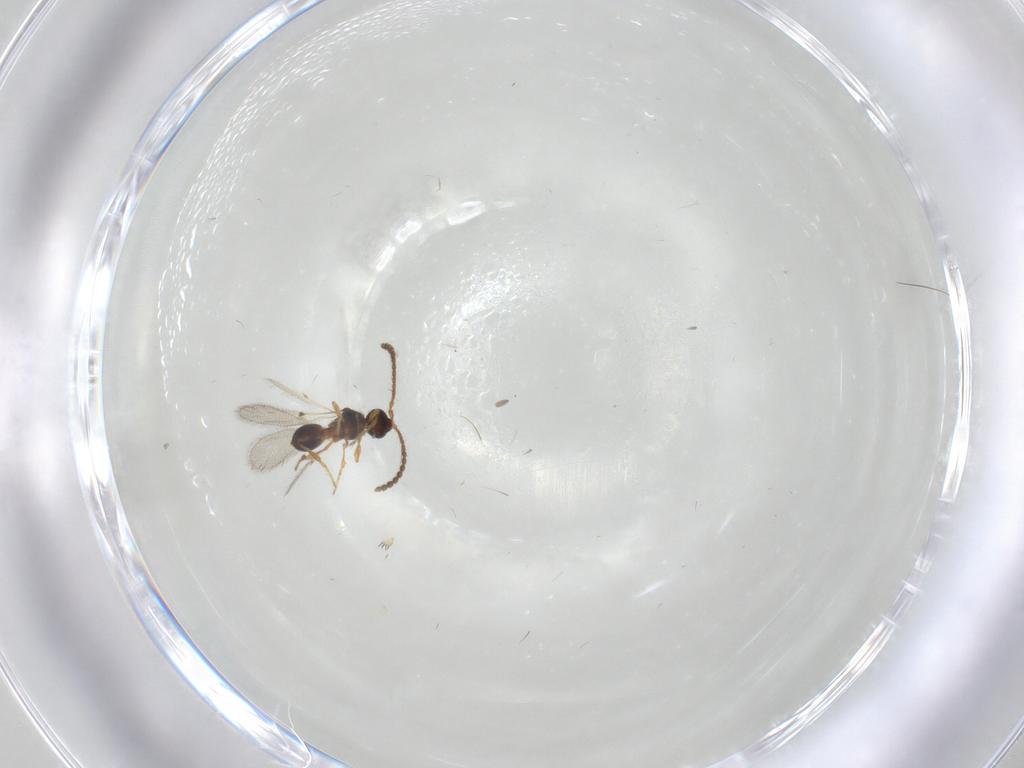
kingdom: Animalia
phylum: Arthropoda
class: Insecta
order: Hymenoptera
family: Diapriidae
